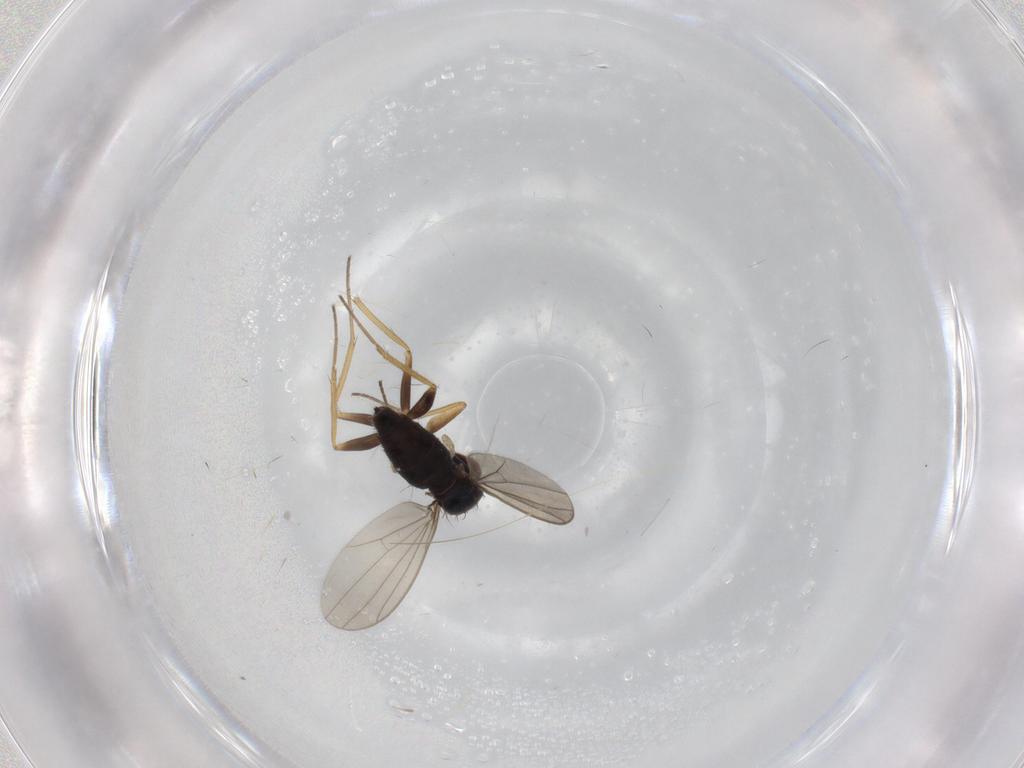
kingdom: Animalia
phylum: Arthropoda
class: Insecta
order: Diptera
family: Dolichopodidae
